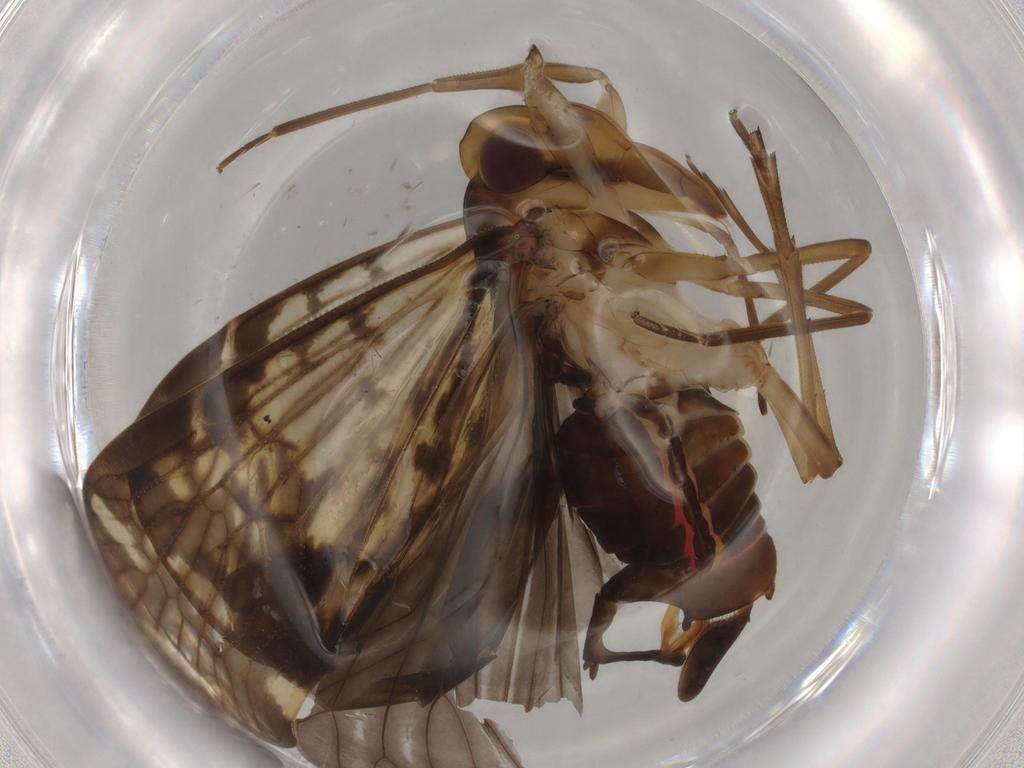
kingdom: Animalia
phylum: Arthropoda
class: Insecta
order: Hemiptera
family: Cixiidae
